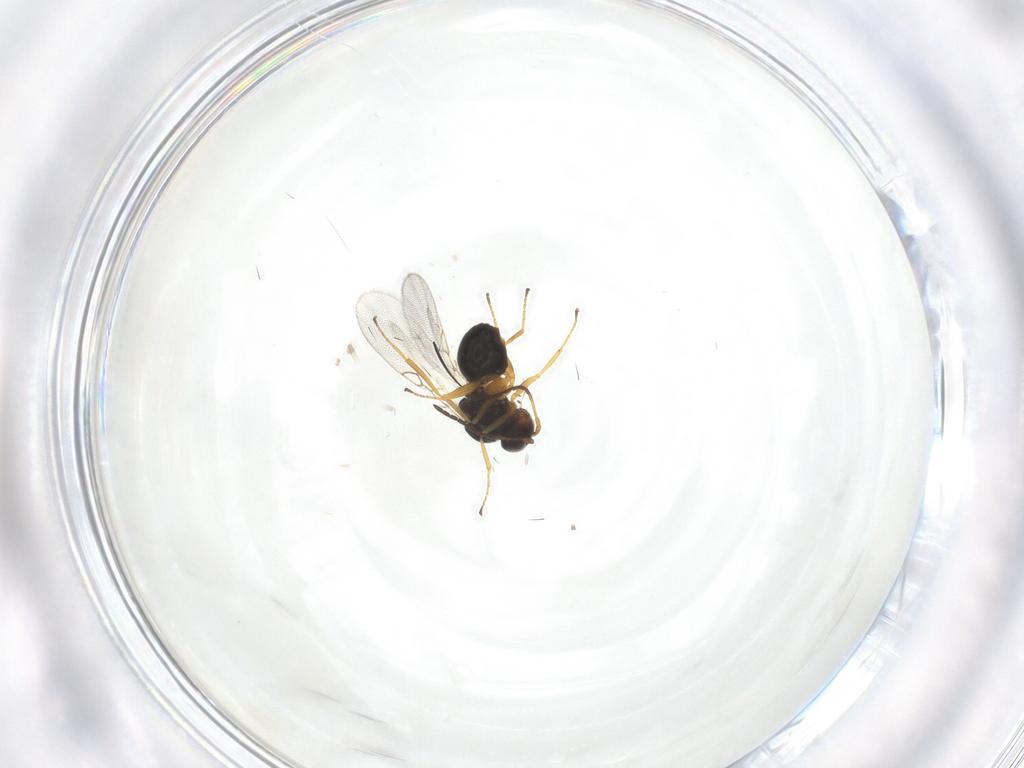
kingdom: Animalia
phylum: Arthropoda
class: Insecta
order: Hymenoptera
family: Figitidae
